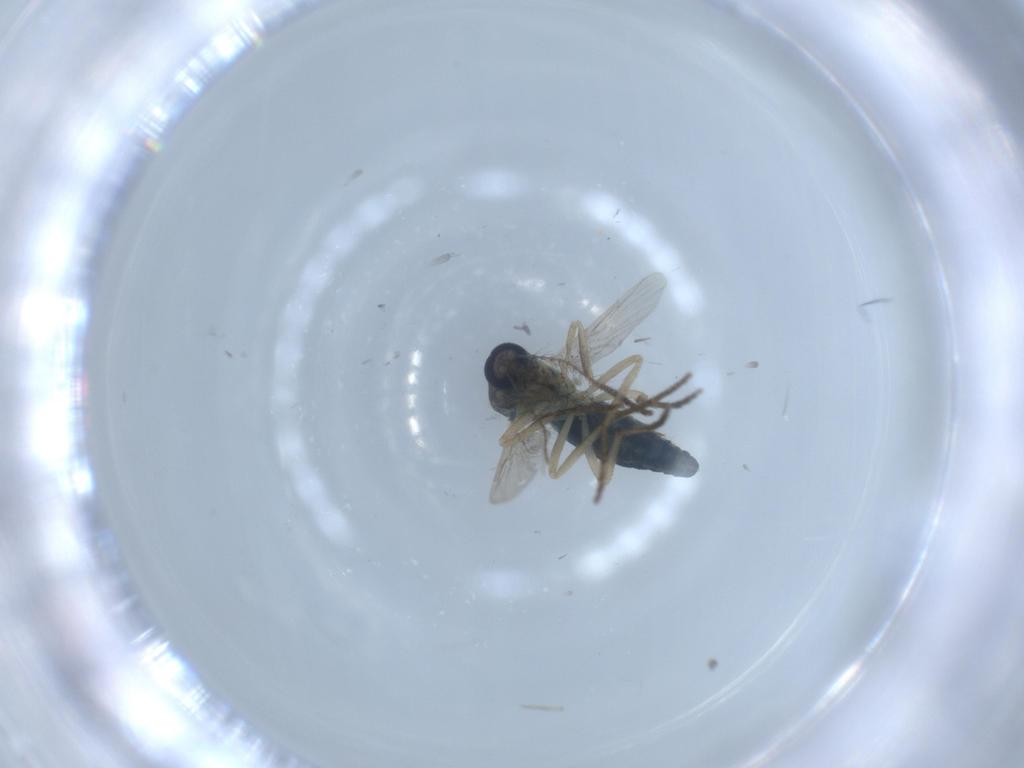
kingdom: Animalia
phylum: Arthropoda
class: Insecta
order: Diptera
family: Ceratopogonidae
